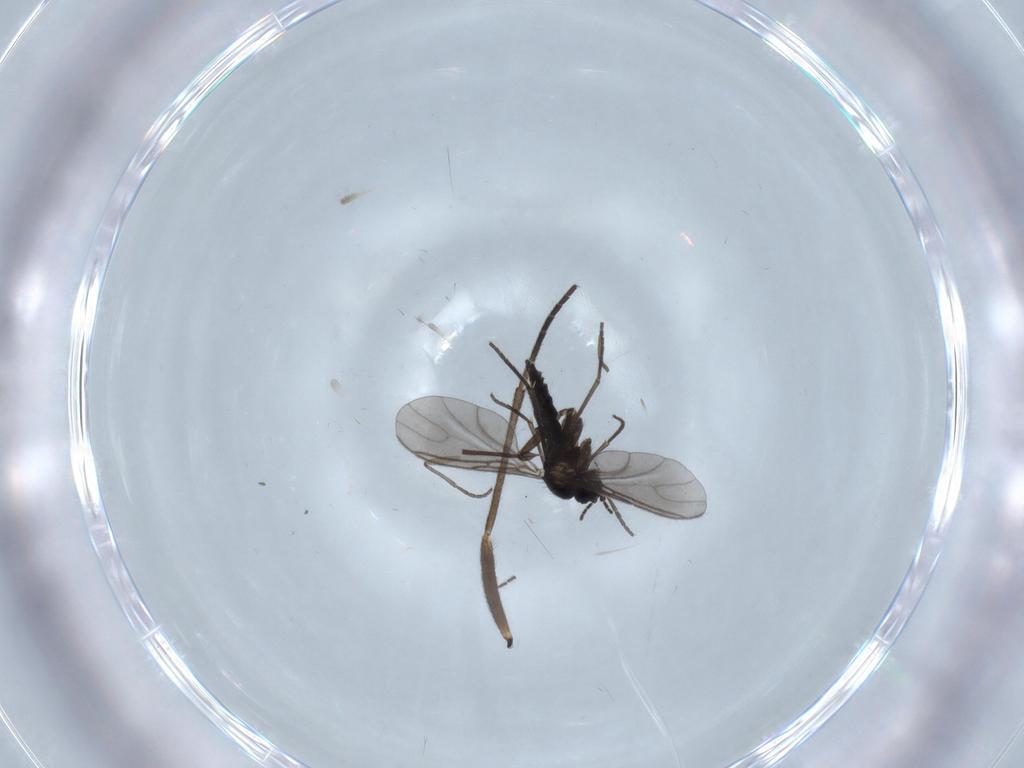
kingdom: Animalia
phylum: Arthropoda
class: Insecta
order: Diptera
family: Sciaridae
